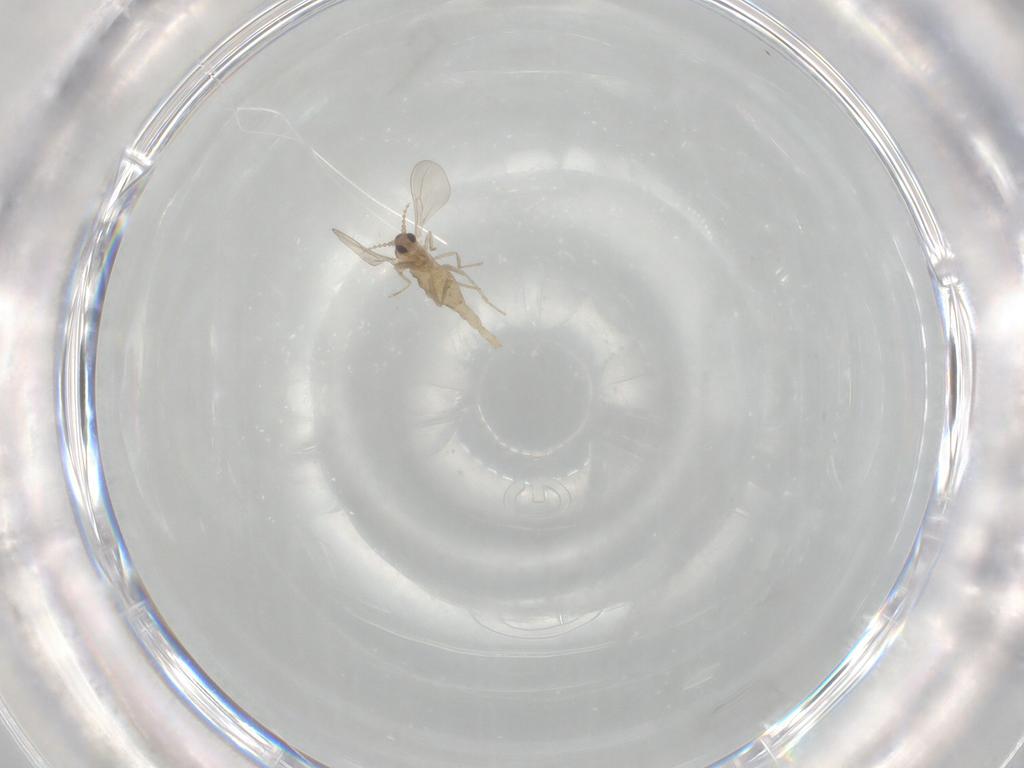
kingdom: Animalia
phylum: Arthropoda
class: Insecta
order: Diptera
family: Cecidomyiidae
